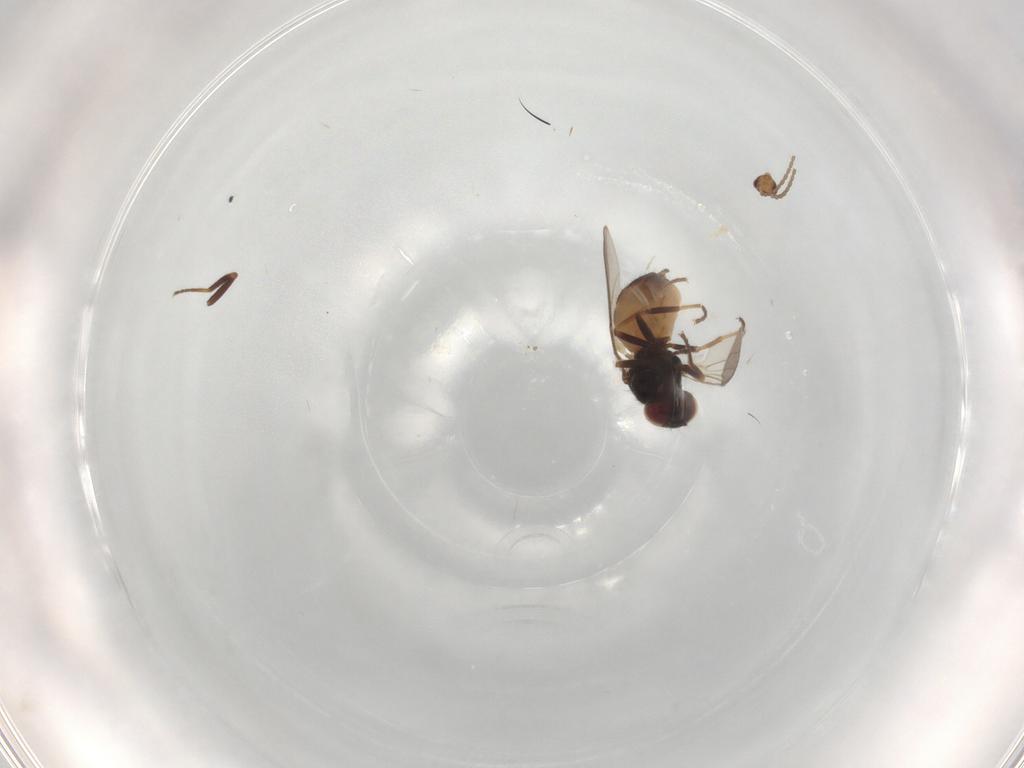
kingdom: Animalia
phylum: Arthropoda
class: Insecta
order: Diptera
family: Chloropidae
